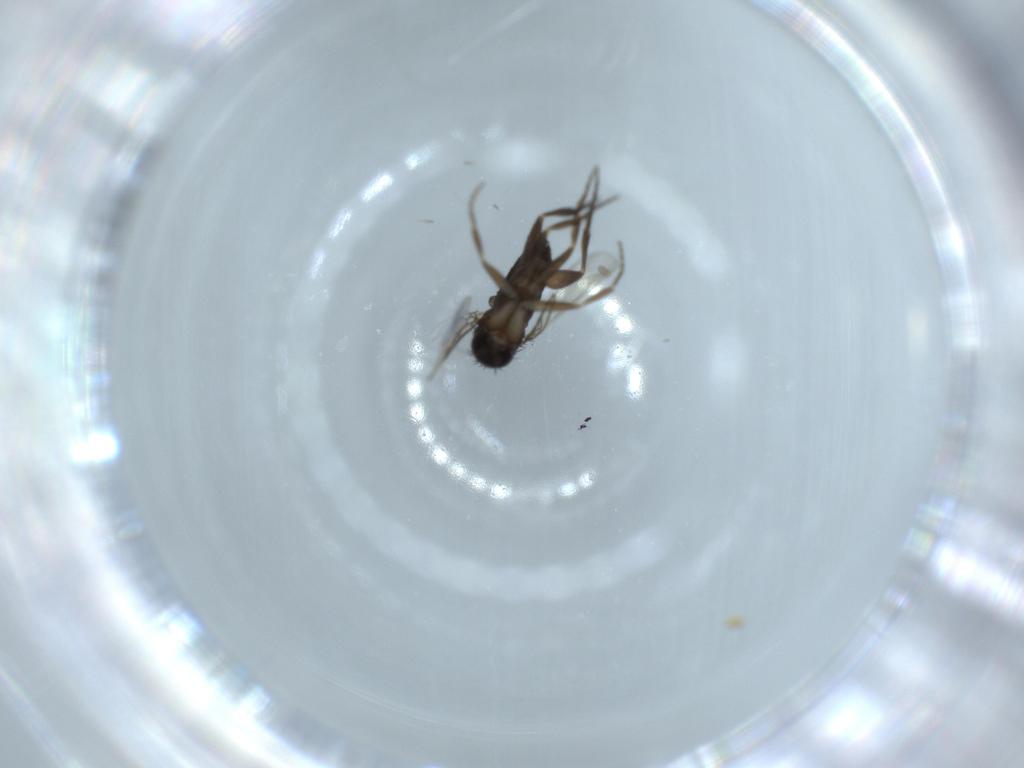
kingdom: Animalia
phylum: Arthropoda
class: Insecta
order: Diptera
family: Phoridae
